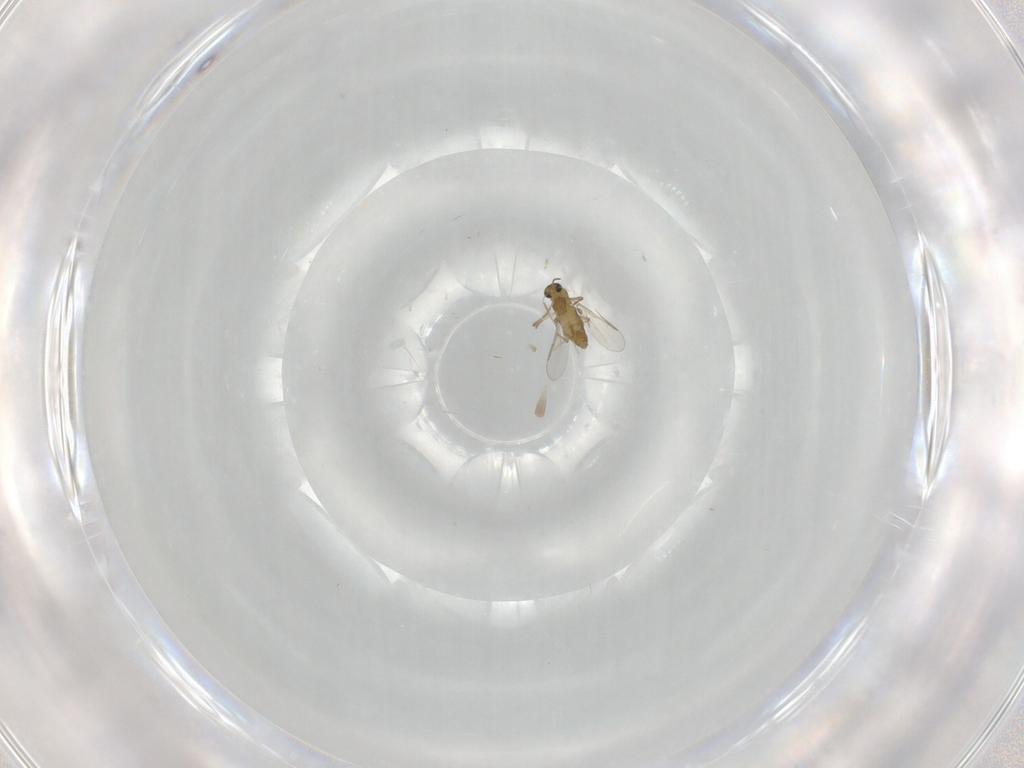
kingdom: Animalia
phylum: Arthropoda
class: Insecta
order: Diptera
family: Chironomidae
